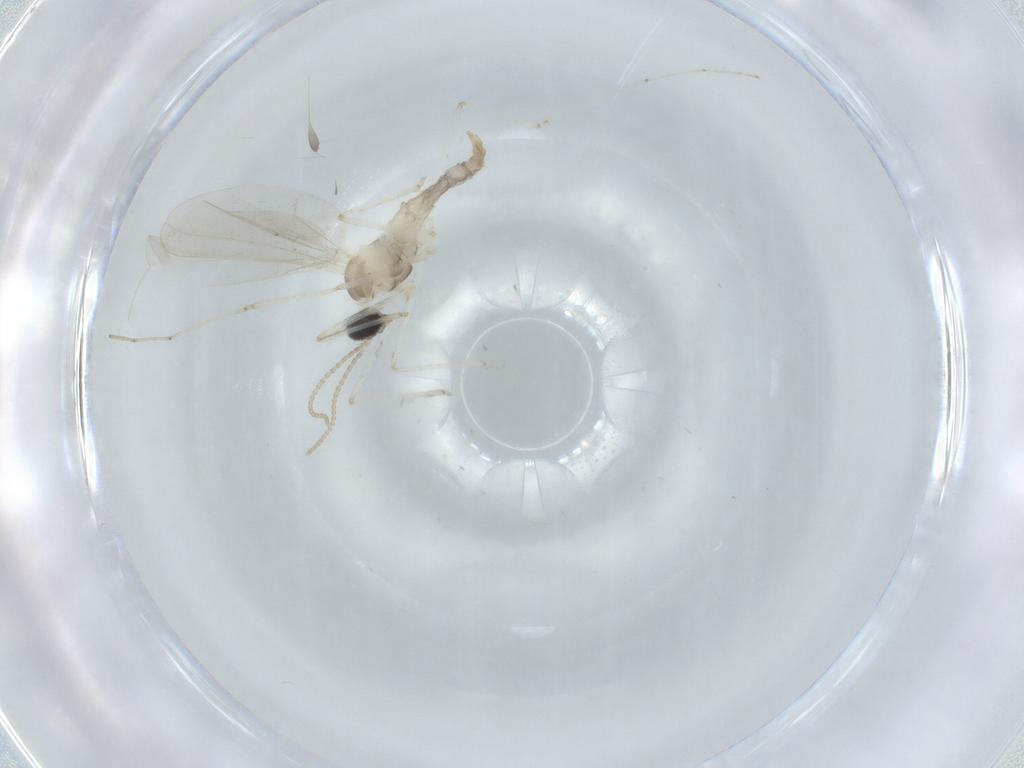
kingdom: Animalia
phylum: Arthropoda
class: Insecta
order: Diptera
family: Cecidomyiidae
